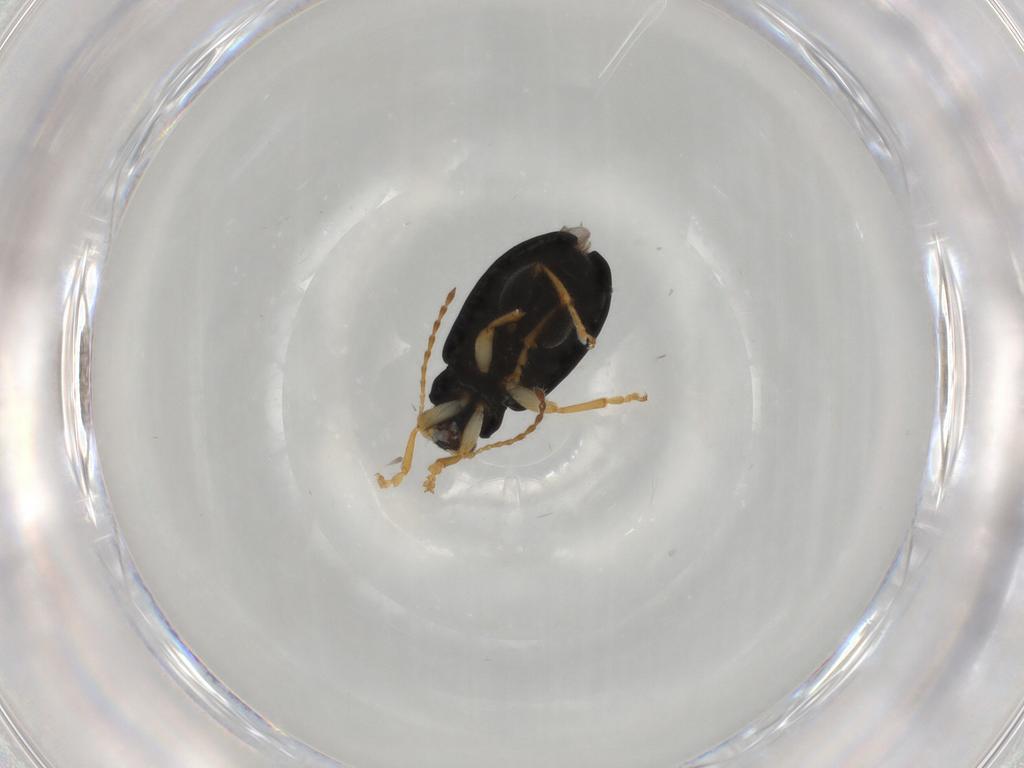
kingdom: Animalia
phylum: Arthropoda
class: Insecta
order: Coleoptera
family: Chrysomelidae
